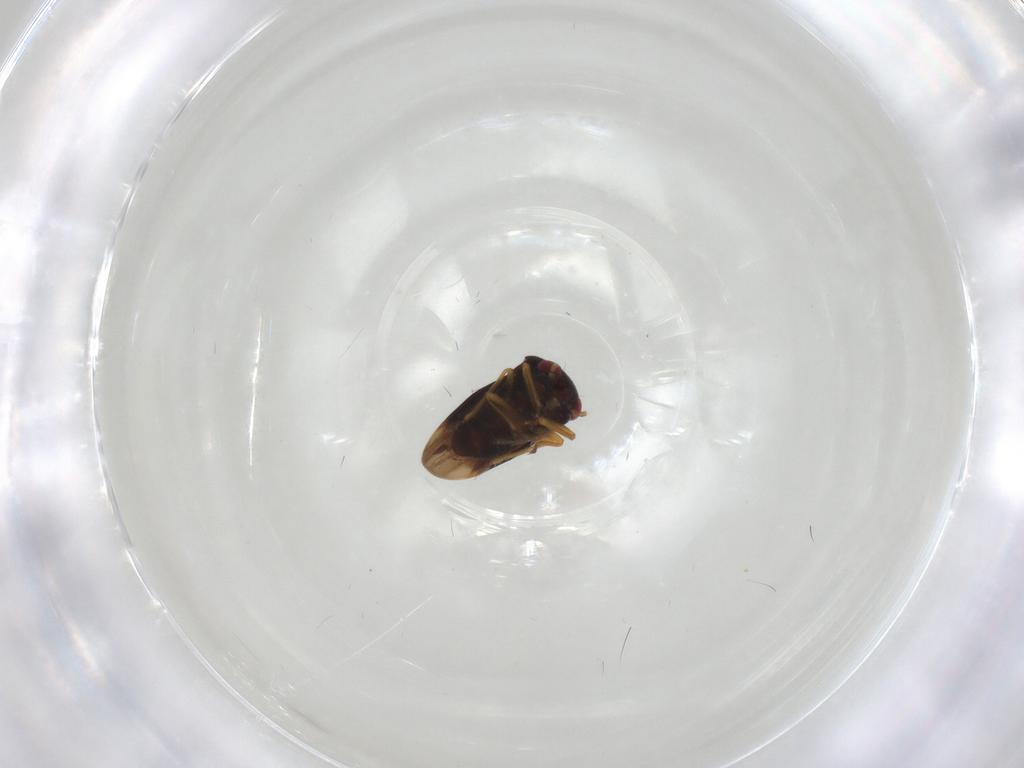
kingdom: Animalia
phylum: Arthropoda
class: Insecta
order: Hemiptera
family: Schizopteridae
